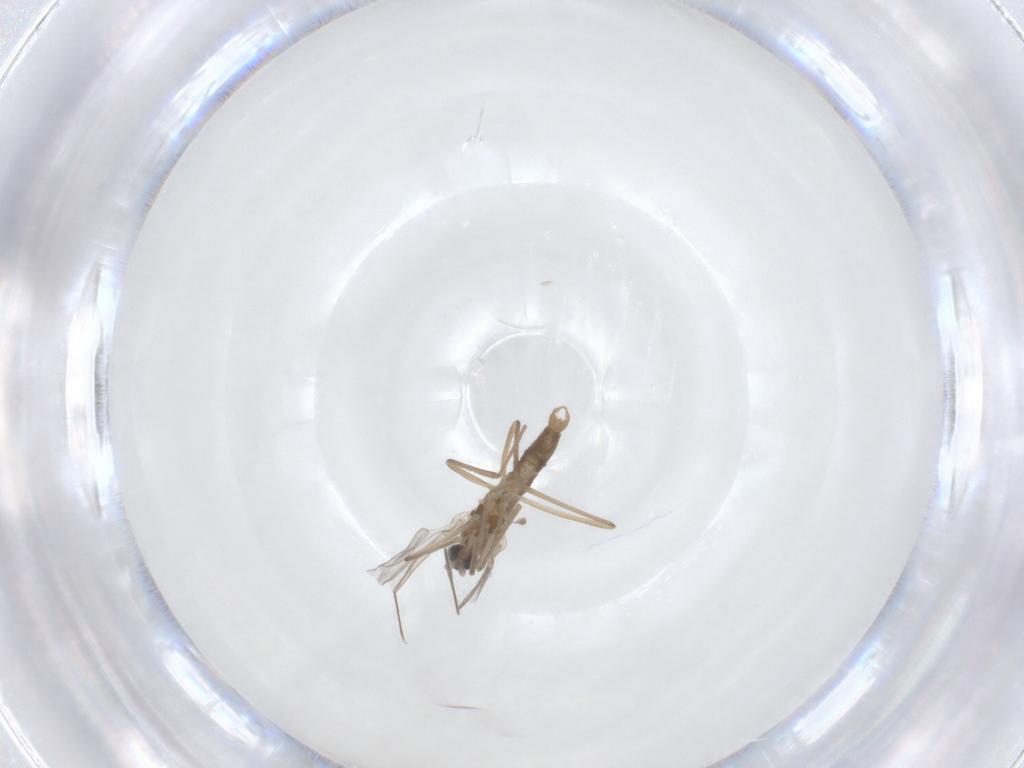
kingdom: Animalia
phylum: Arthropoda
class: Insecta
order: Diptera
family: Cecidomyiidae
